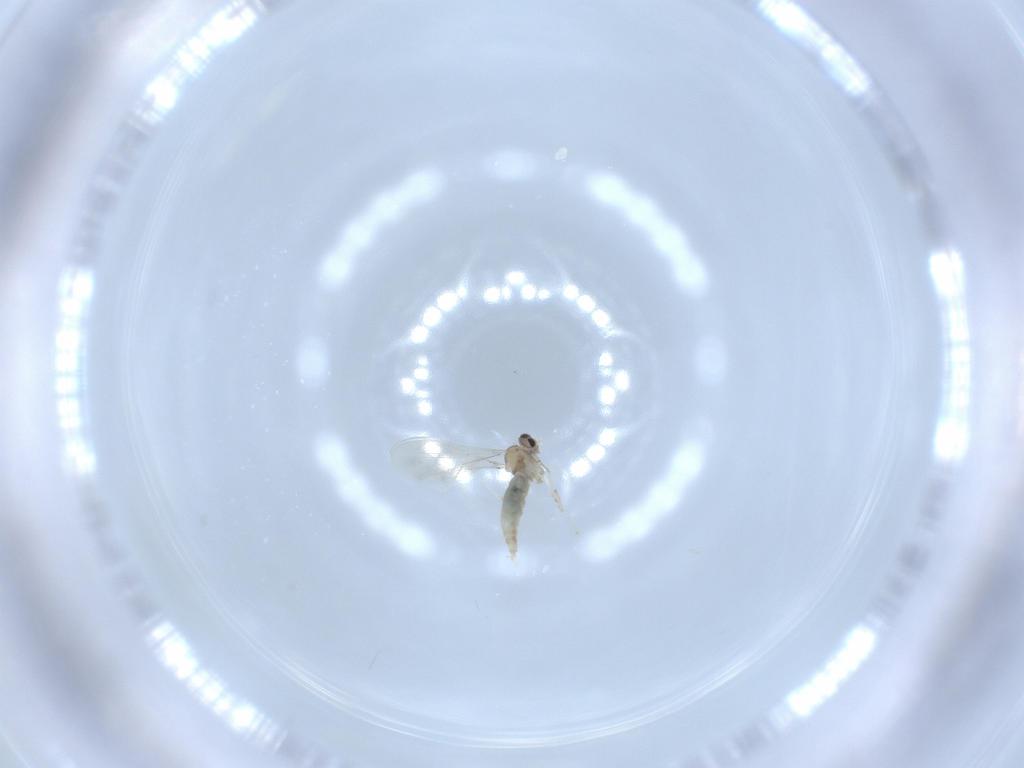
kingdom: Animalia
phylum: Arthropoda
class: Insecta
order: Diptera
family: Cecidomyiidae
